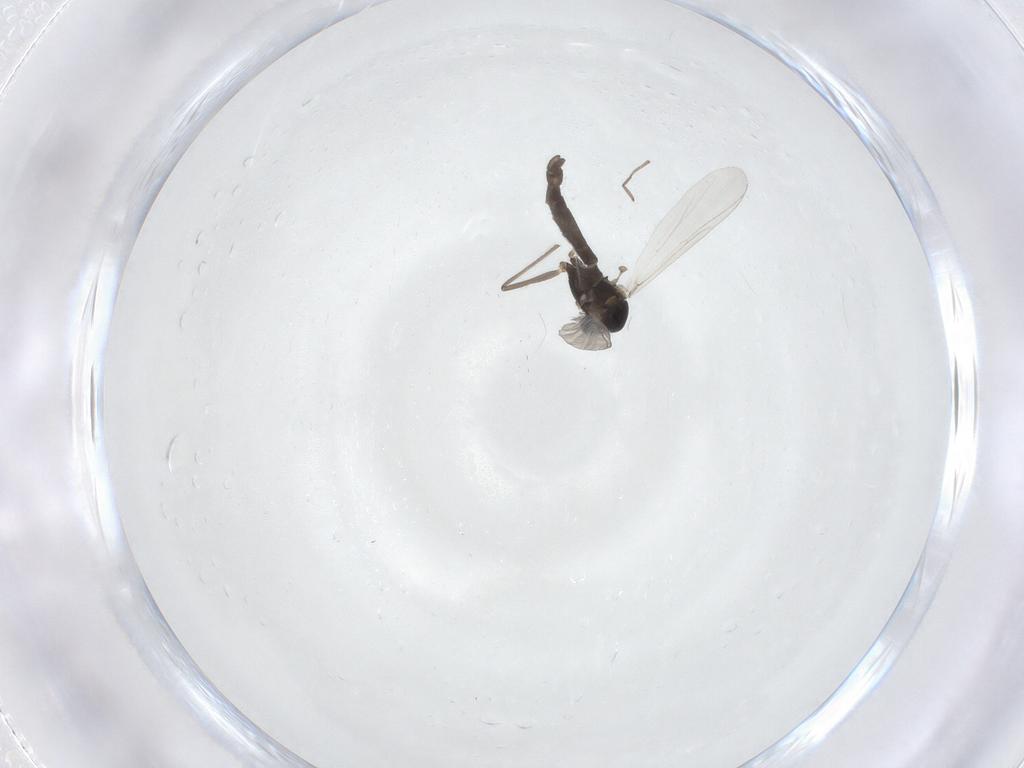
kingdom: Animalia
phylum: Arthropoda
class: Insecta
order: Diptera
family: Chironomidae
